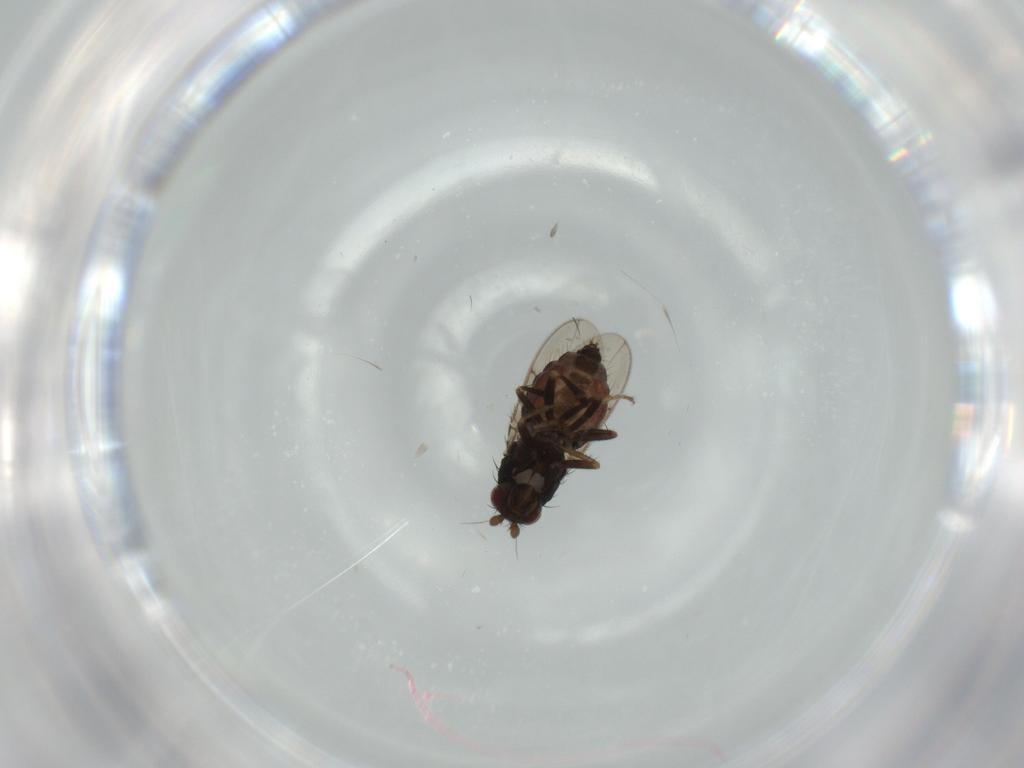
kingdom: Animalia
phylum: Arthropoda
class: Insecta
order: Diptera
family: Sphaeroceridae
